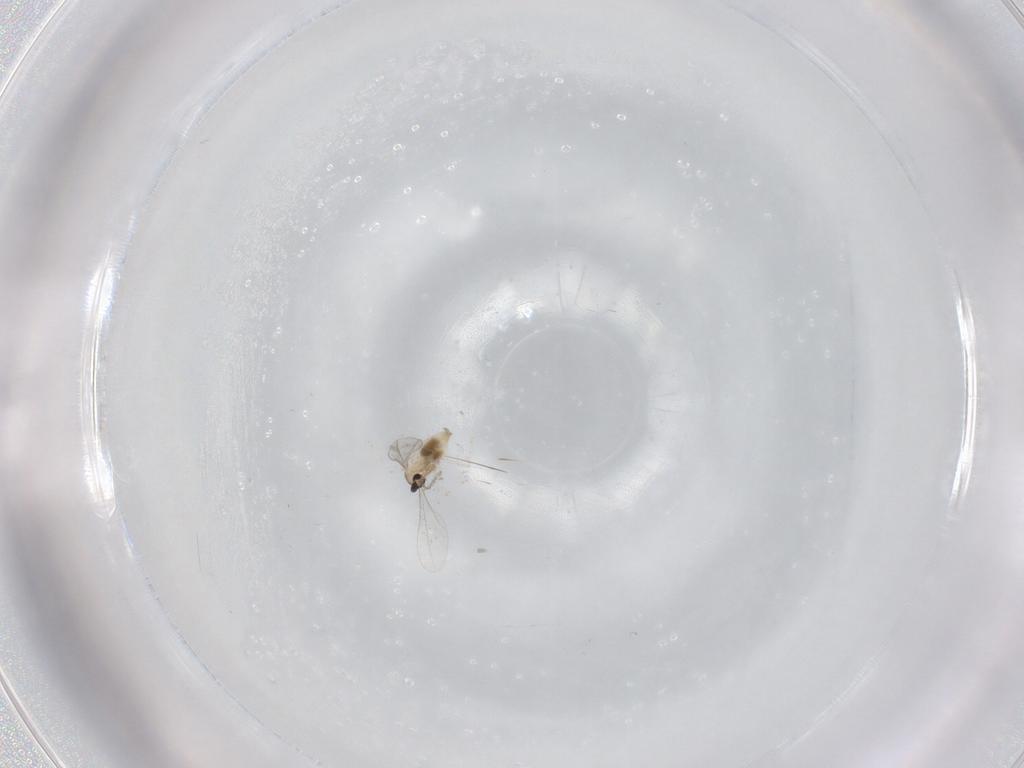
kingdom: Animalia
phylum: Arthropoda
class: Insecta
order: Diptera
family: Cecidomyiidae
